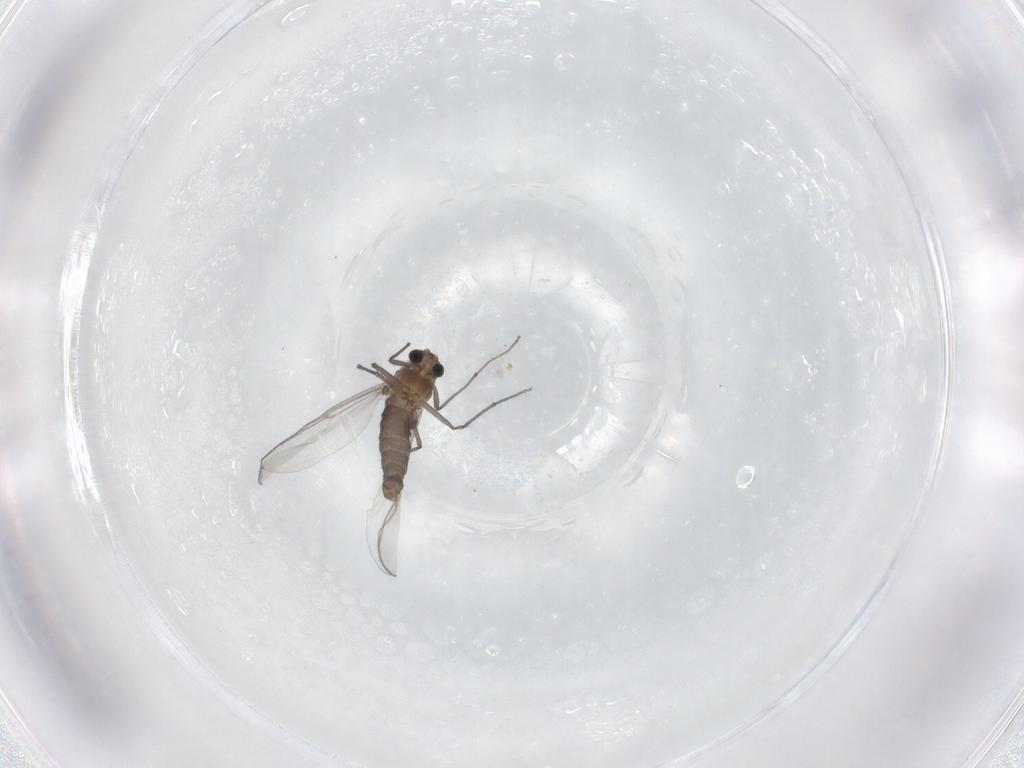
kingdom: Animalia
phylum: Arthropoda
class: Insecta
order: Diptera
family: Chironomidae
